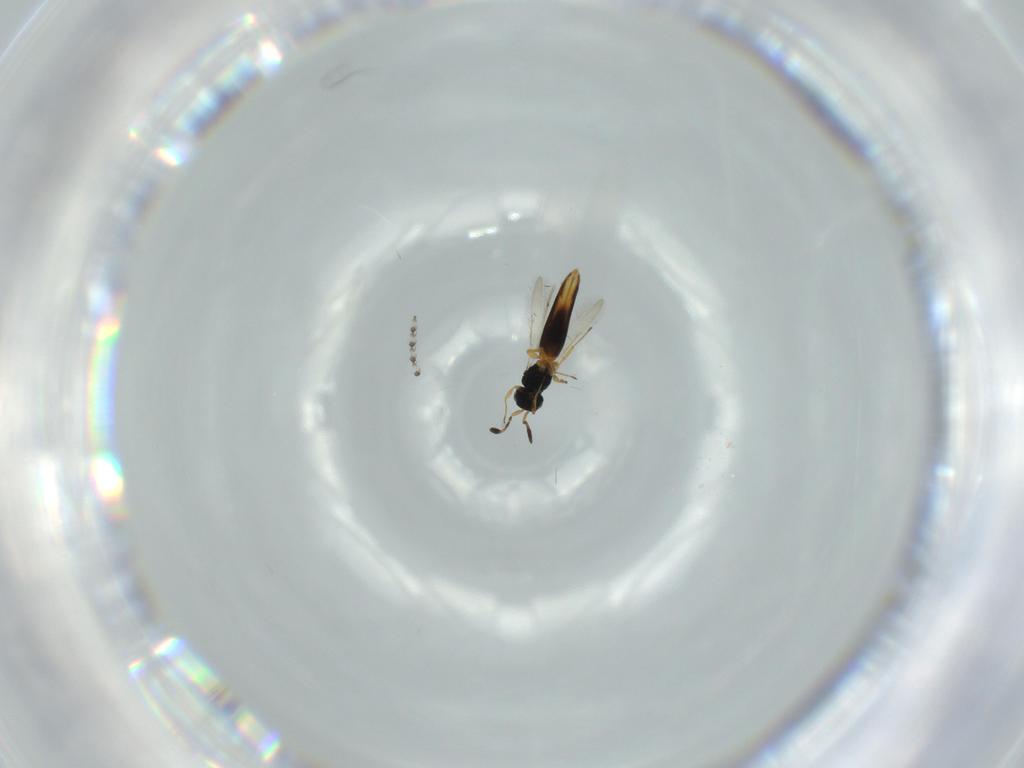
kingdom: Animalia
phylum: Arthropoda
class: Insecta
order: Hymenoptera
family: Scelionidae
